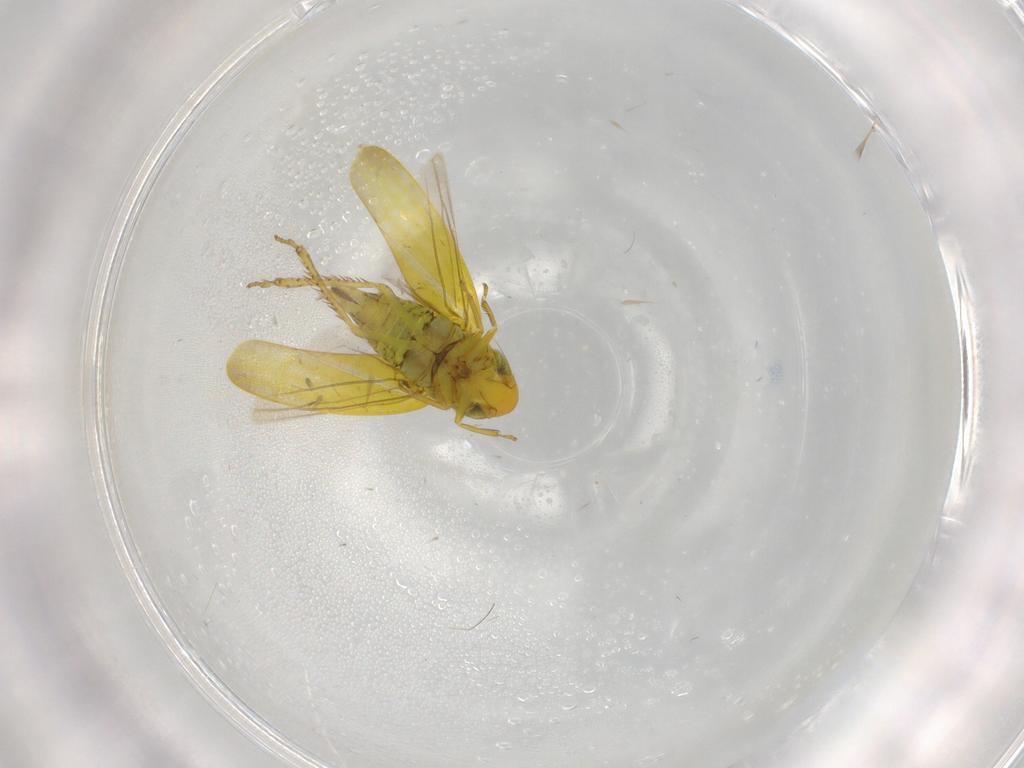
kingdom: Animalia
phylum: Arthropoda
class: Insecta
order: Hemiptera
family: Cicadellidae
